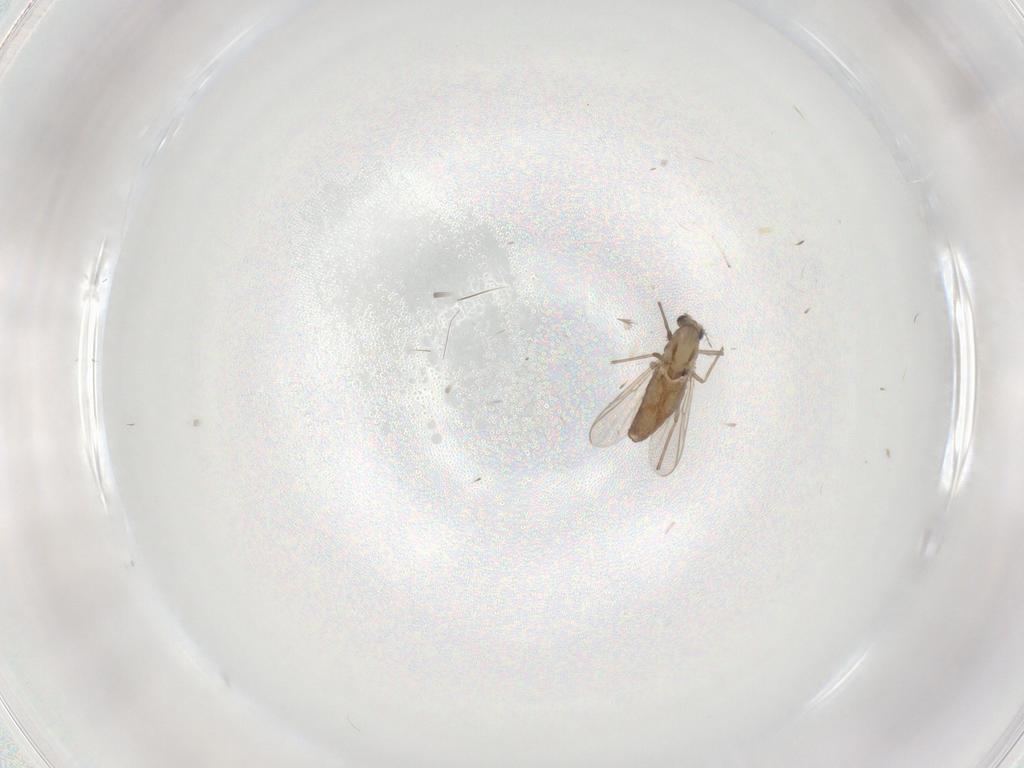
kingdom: Animalia
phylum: Arthropoda
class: Insecta
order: Diptera
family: Chironomidae
